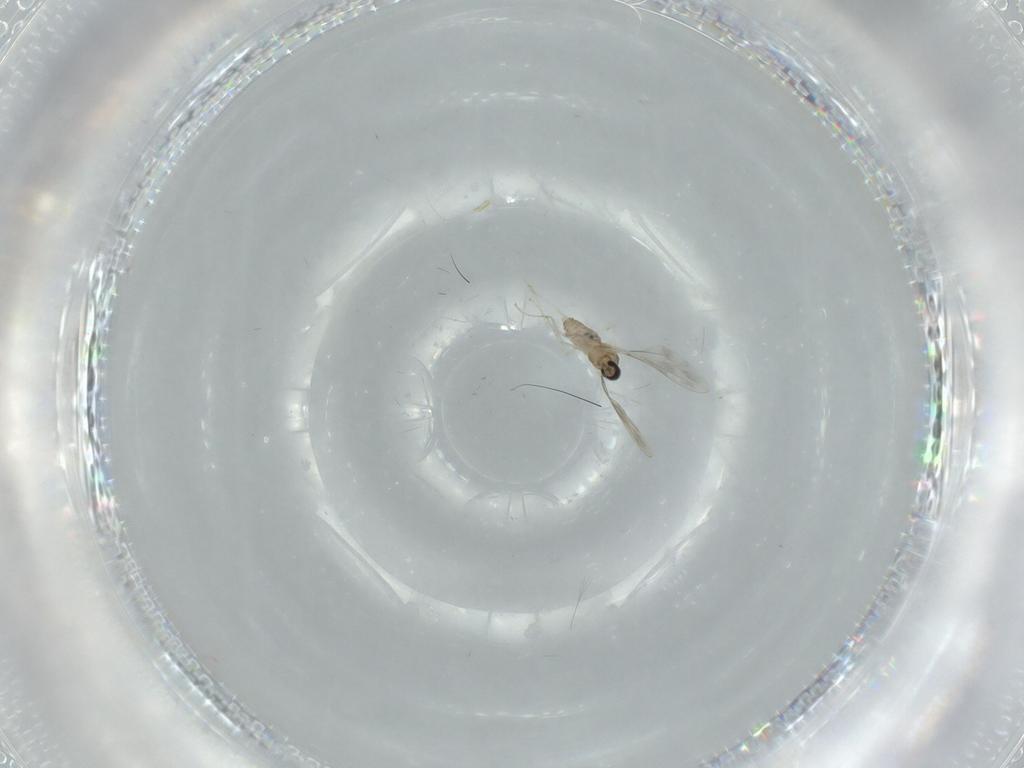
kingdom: Animalia
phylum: Arthropoda
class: Insecta
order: Diptera
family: Cecidomyiidae
